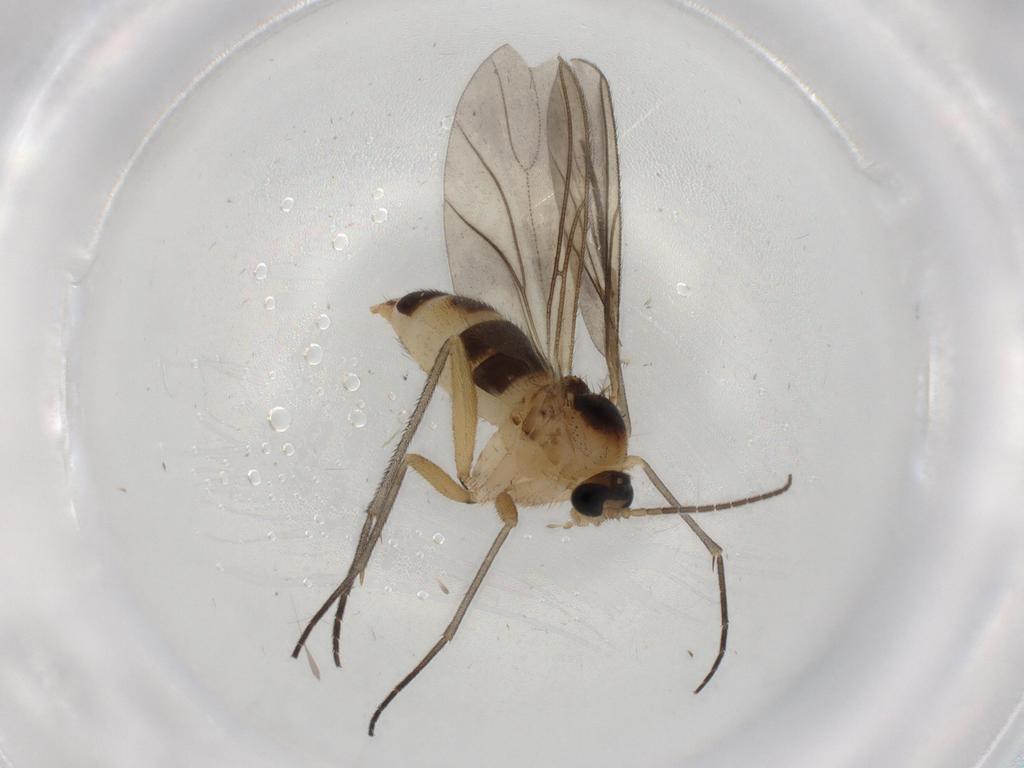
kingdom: Animalia
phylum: Arthropoda
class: Insecta
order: Diptera
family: Sciaridae
